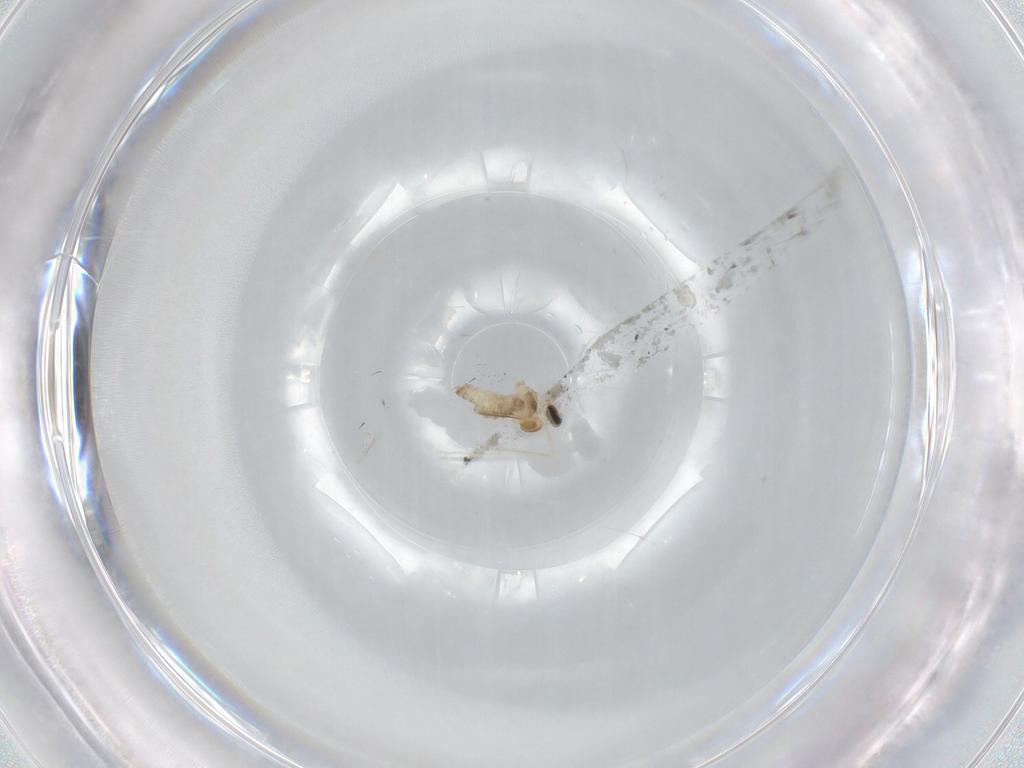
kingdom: Animalia
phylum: Arthropoda
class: Insecta
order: Diptera
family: Cecidomyiidae
